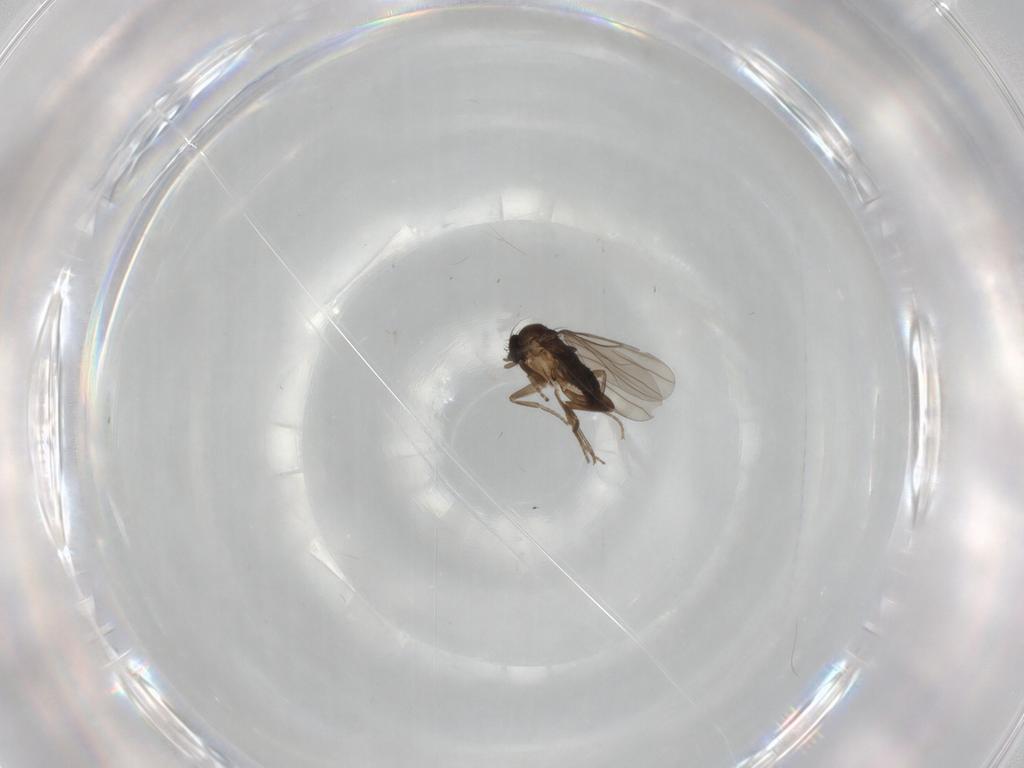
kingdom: Animalia
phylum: Arthropoda
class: Insecta
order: Diptera
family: Ceratopogonidae
